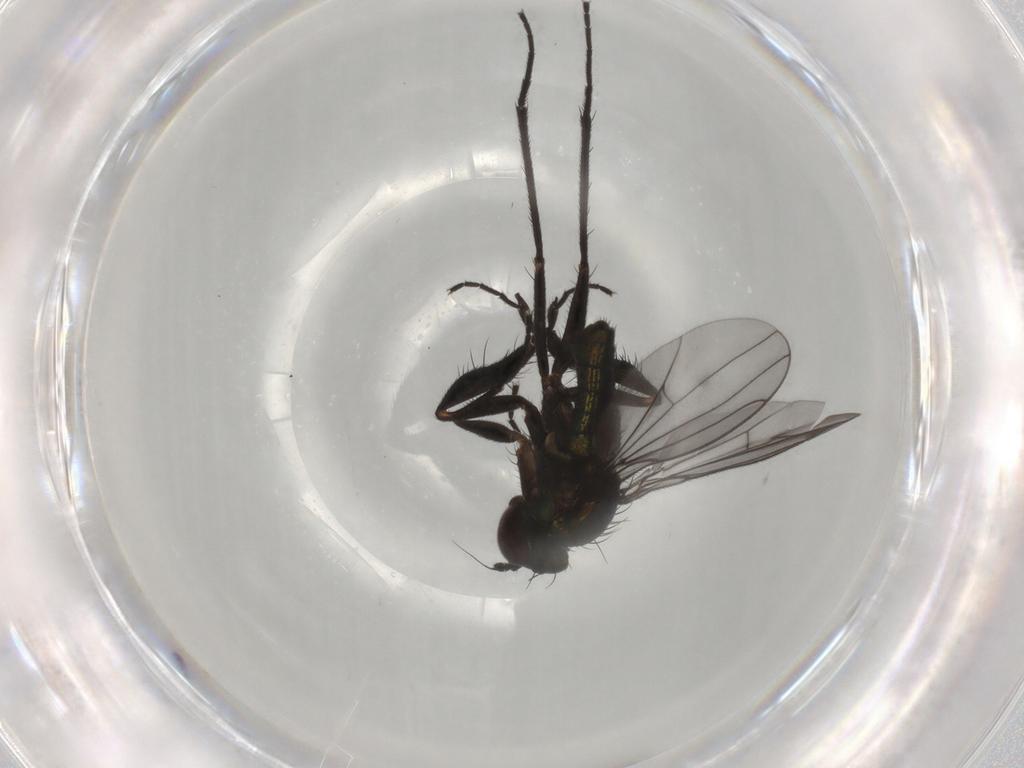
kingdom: Animalia
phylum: Arthropoda
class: Insecta
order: Diptera
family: Dolichopodidae
